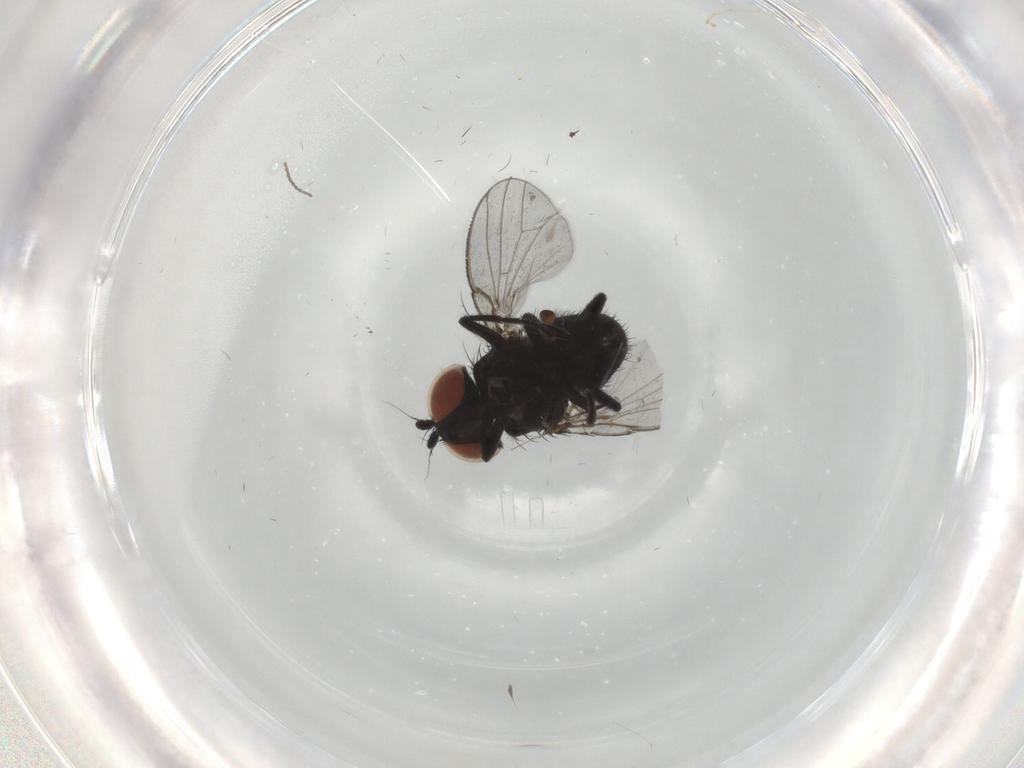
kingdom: Animalia
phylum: Arthropoda
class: Insecta
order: Diptera
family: Milichiidae
